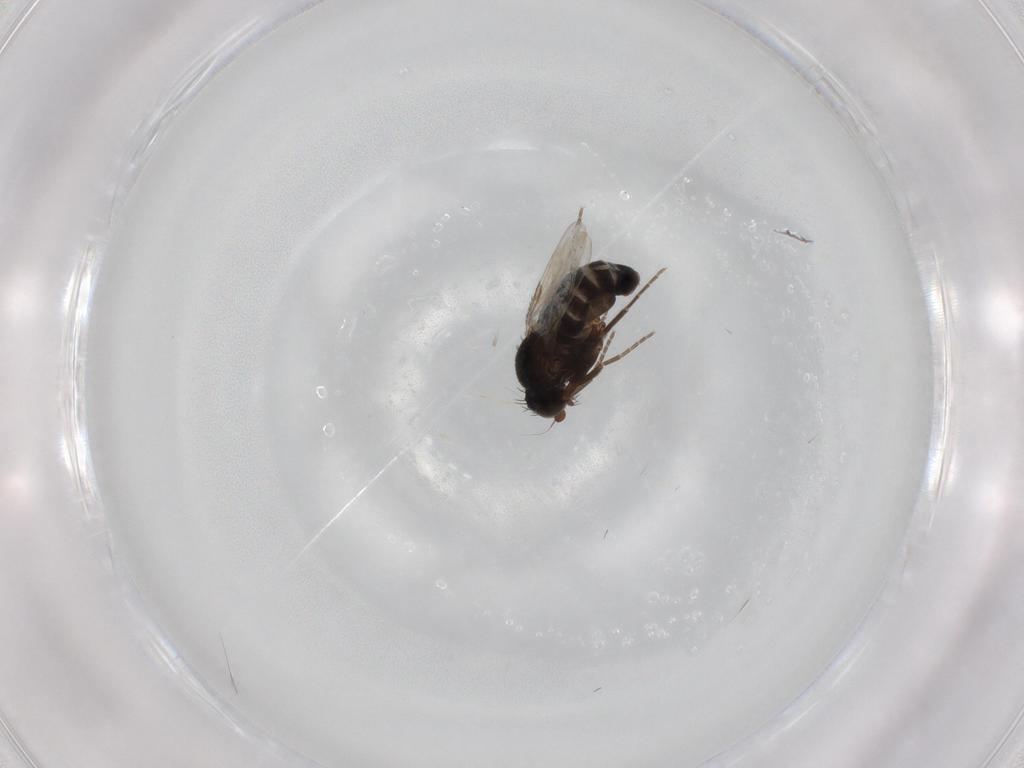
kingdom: Animalia
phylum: Arthropoda
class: Insecta
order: Diptera
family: Phoridae
